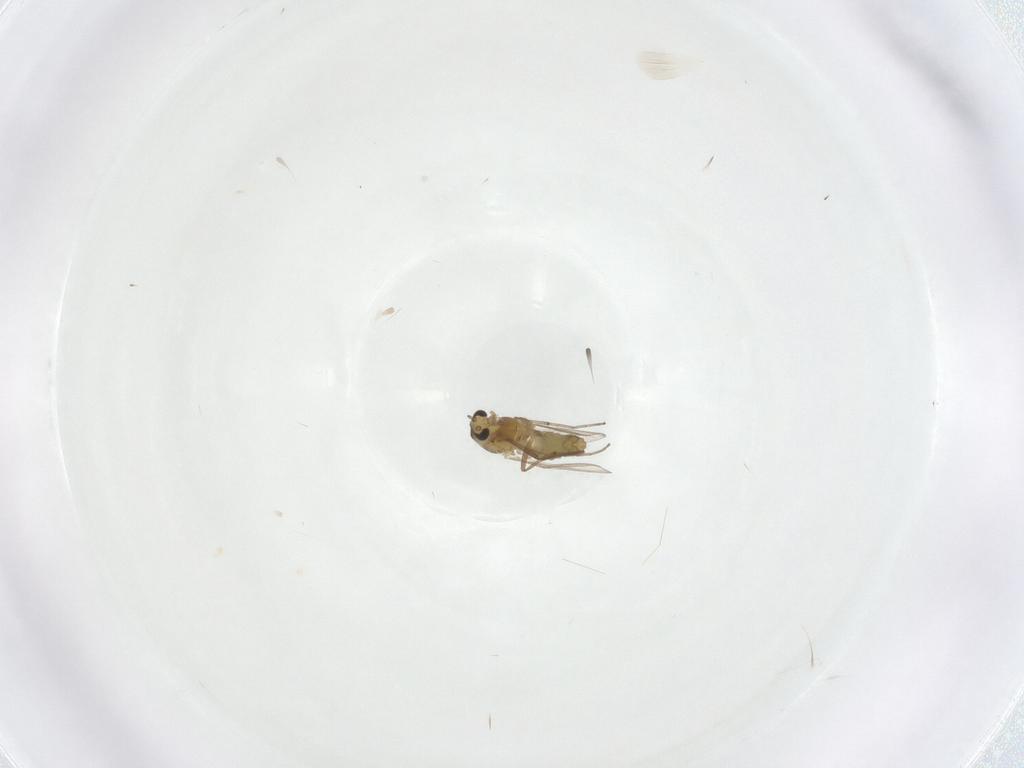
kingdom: Animalia
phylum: Arthropoda
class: Insecta
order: Diptera
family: Chironomidae
